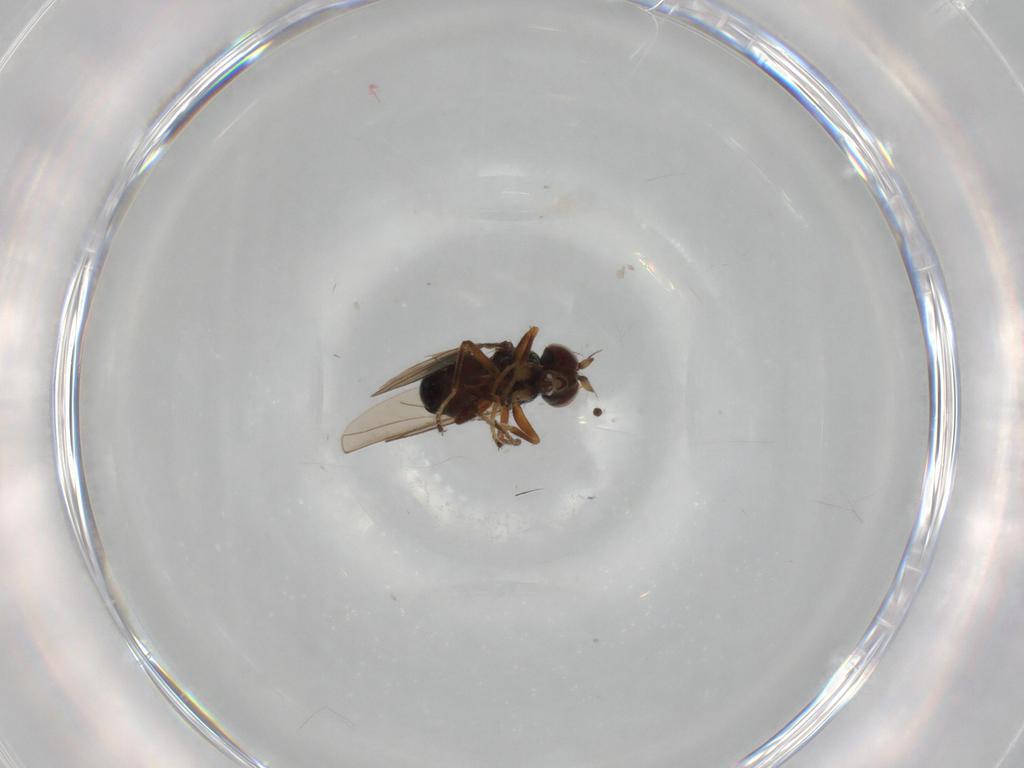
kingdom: Animalia
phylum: Arthropoda
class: Insecta
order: Diptera
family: Ephydridae
